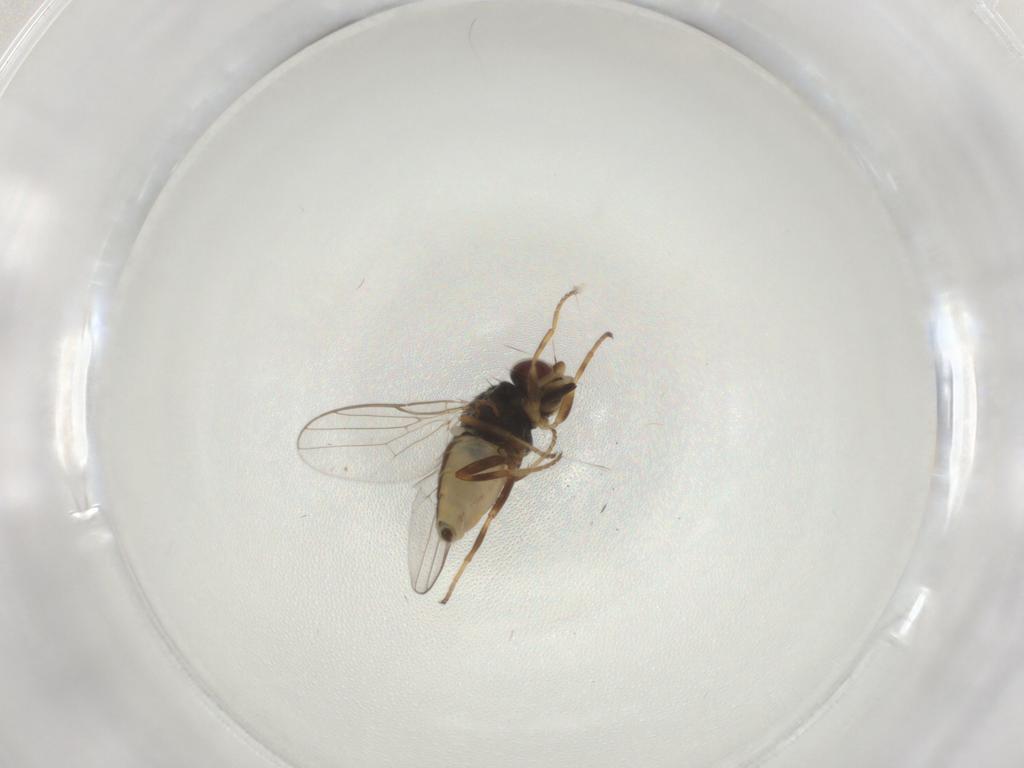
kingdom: Animalia
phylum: Arthropoda
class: Insecta
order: Diptera
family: Chloropidae
